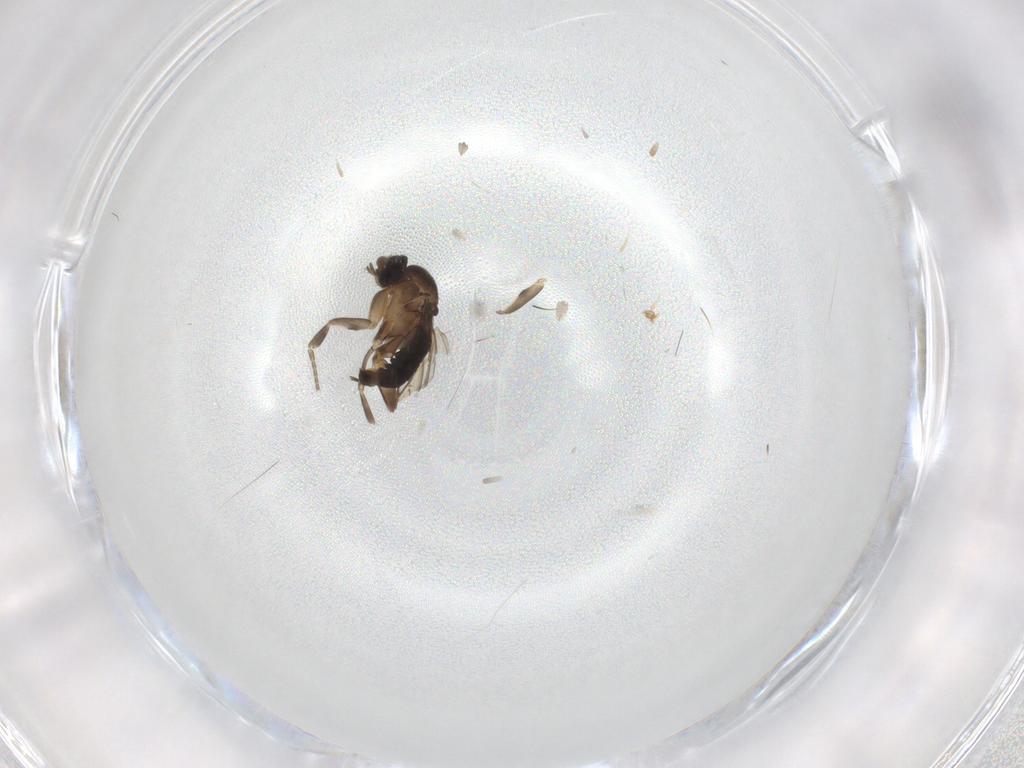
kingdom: Animalia
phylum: Arthropoda
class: Insecta
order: Diptera
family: Phoridae
